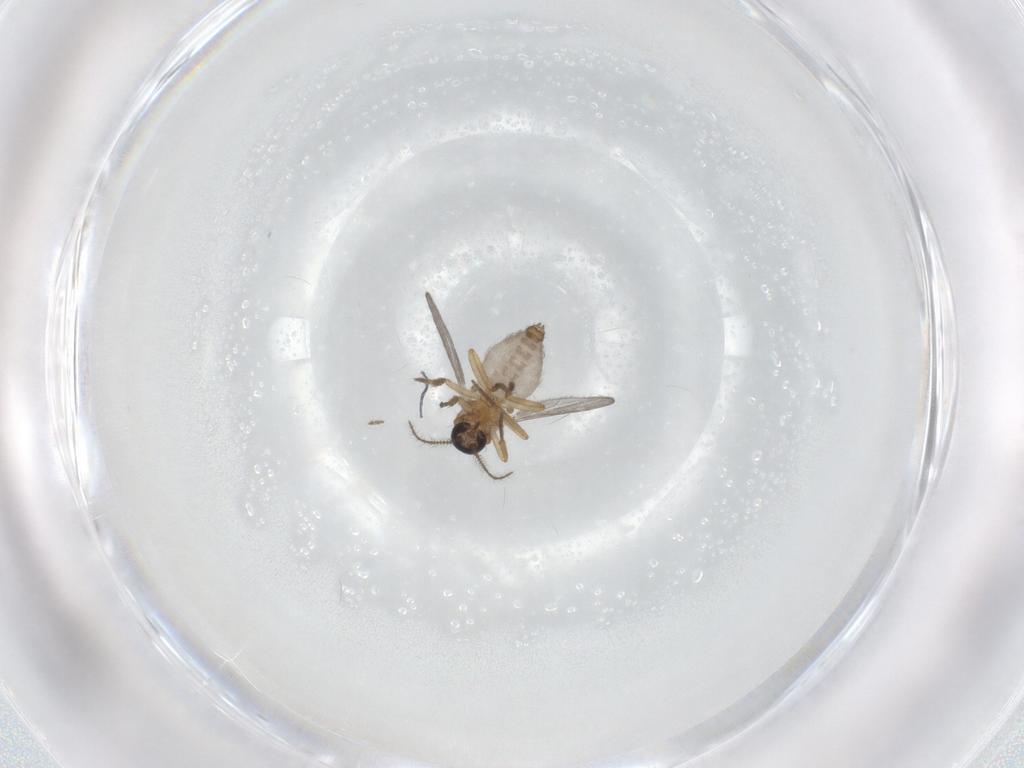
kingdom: Animalia
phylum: Arthropoda
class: Insecta
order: Diptera
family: Ceratopogonidae
